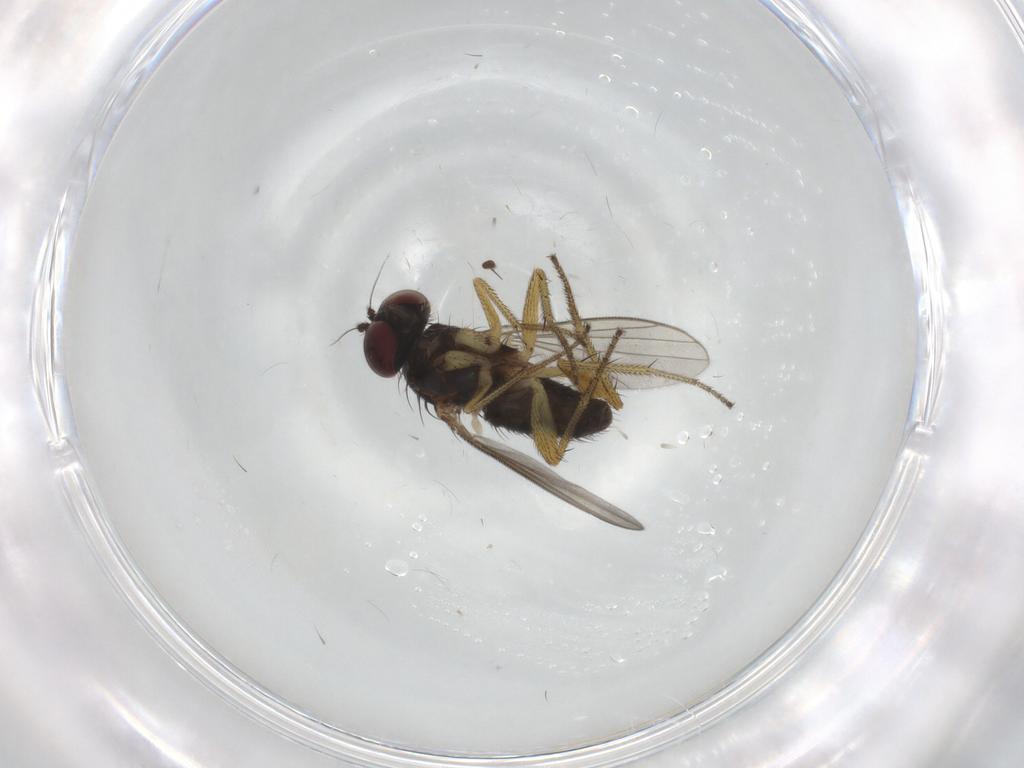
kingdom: Animalia
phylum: Arthropoda
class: Insecta
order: Diptera
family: Dolichopodidae
